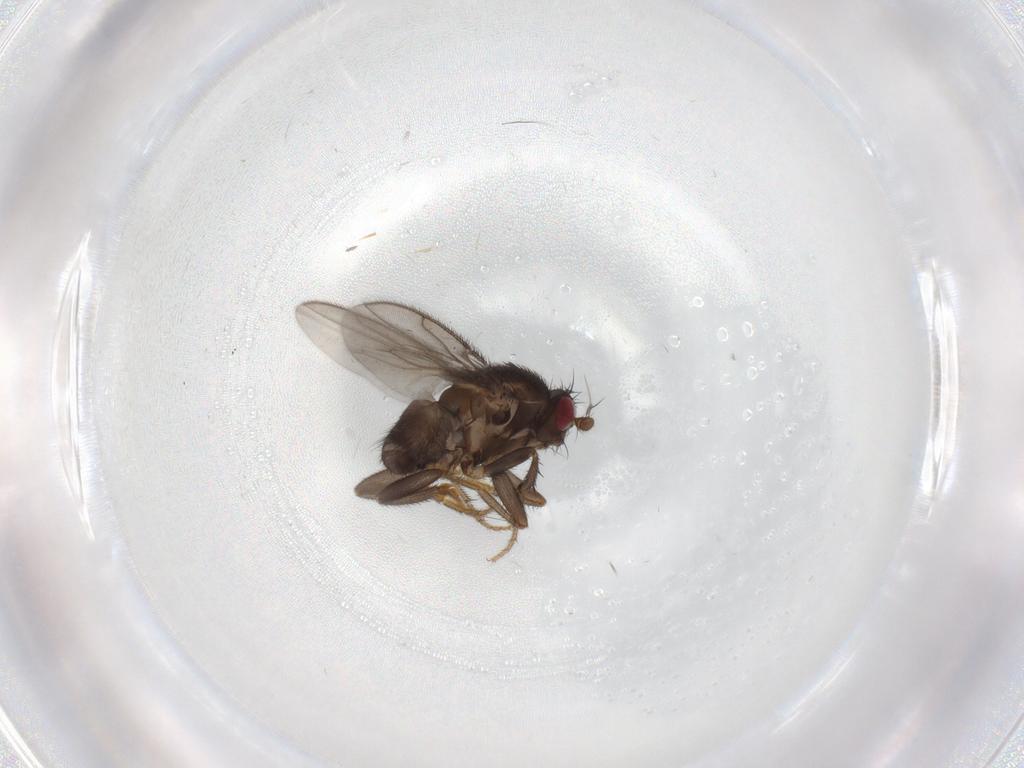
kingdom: Animalia
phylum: Arthropoda
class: Insecta
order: Diptera
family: Sphaeroceridae
